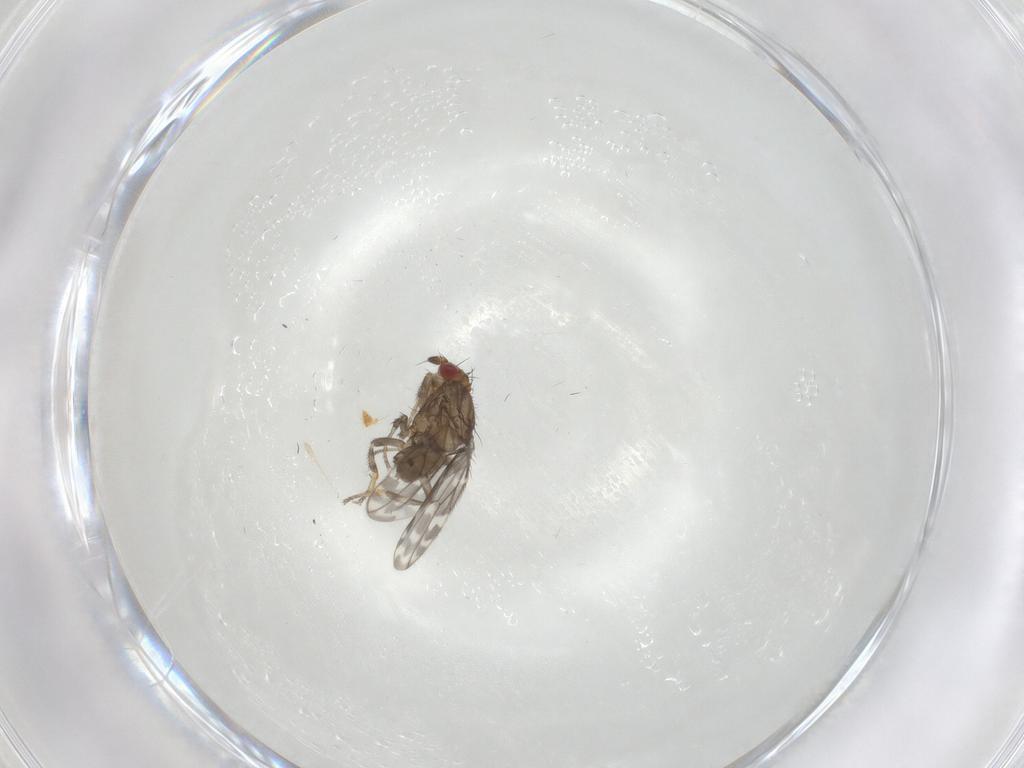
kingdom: Animalia
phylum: Arthropoda
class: Insecta
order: Diptera
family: Sphaeroceridae
